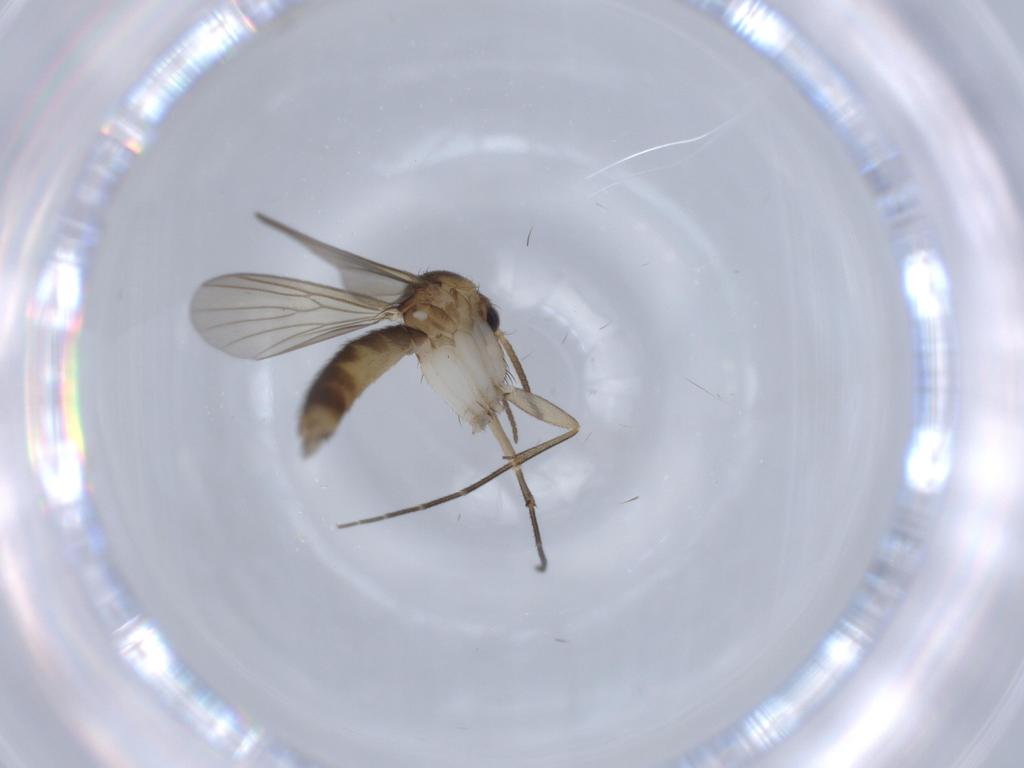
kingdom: Animalia
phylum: Arthropoda
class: Insecta
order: Diptera
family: Mycetophilidae
